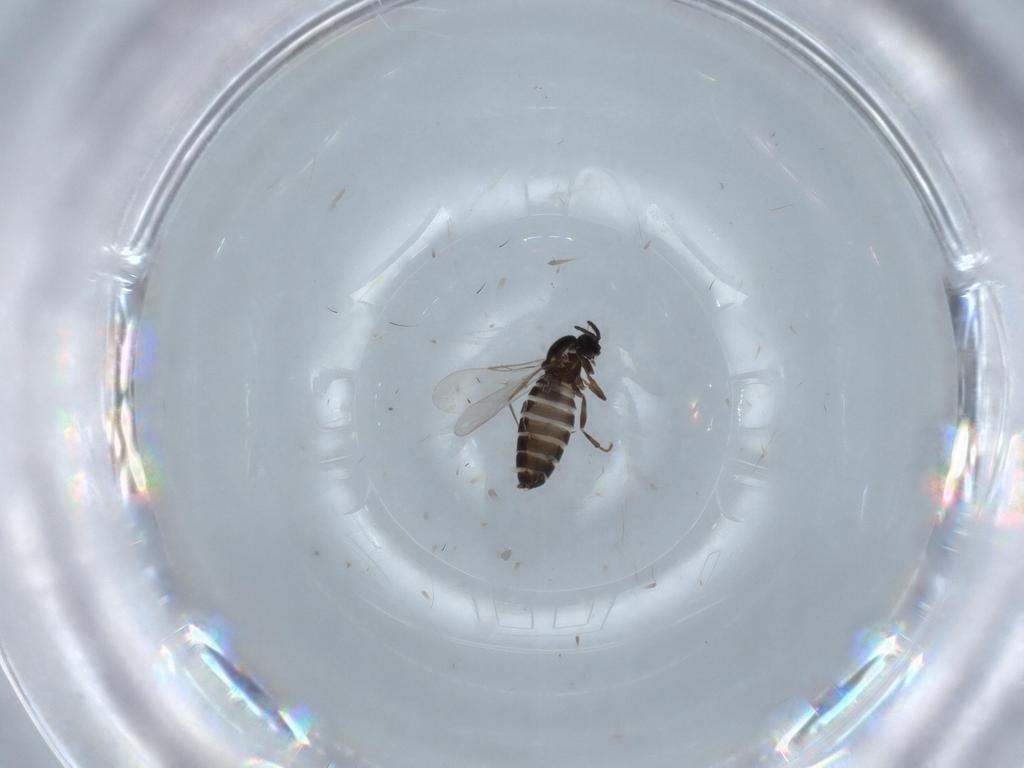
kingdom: Animalia
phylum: Arthropoda
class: Insecta
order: Diptera
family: Scatopsidae
